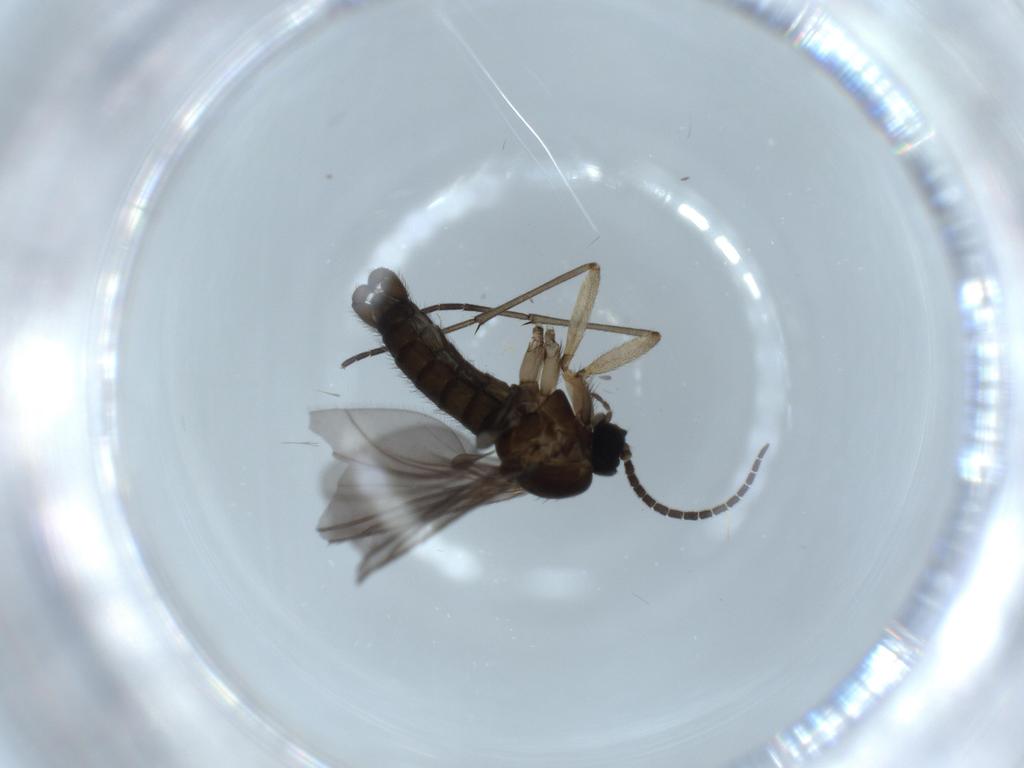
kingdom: Animalia
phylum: Arthropoda
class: Insecta
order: Diptera
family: Sciaridae
